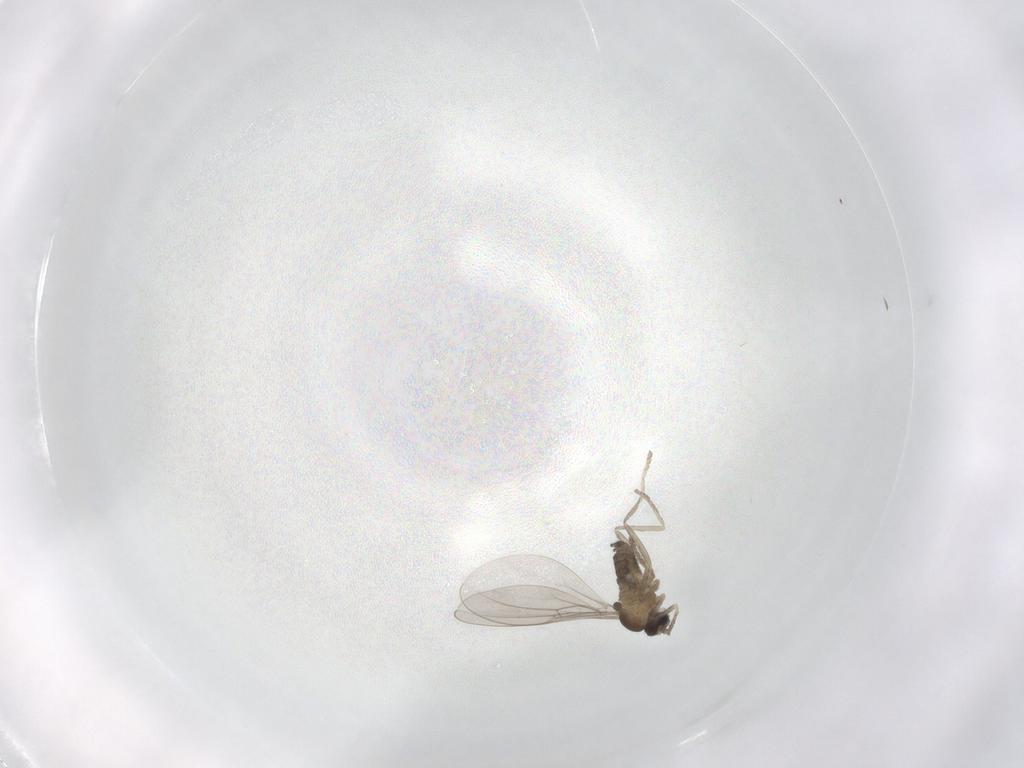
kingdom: Animalia
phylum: Arthropoda
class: Insecta
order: Diptera
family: Cecidomyiidae
